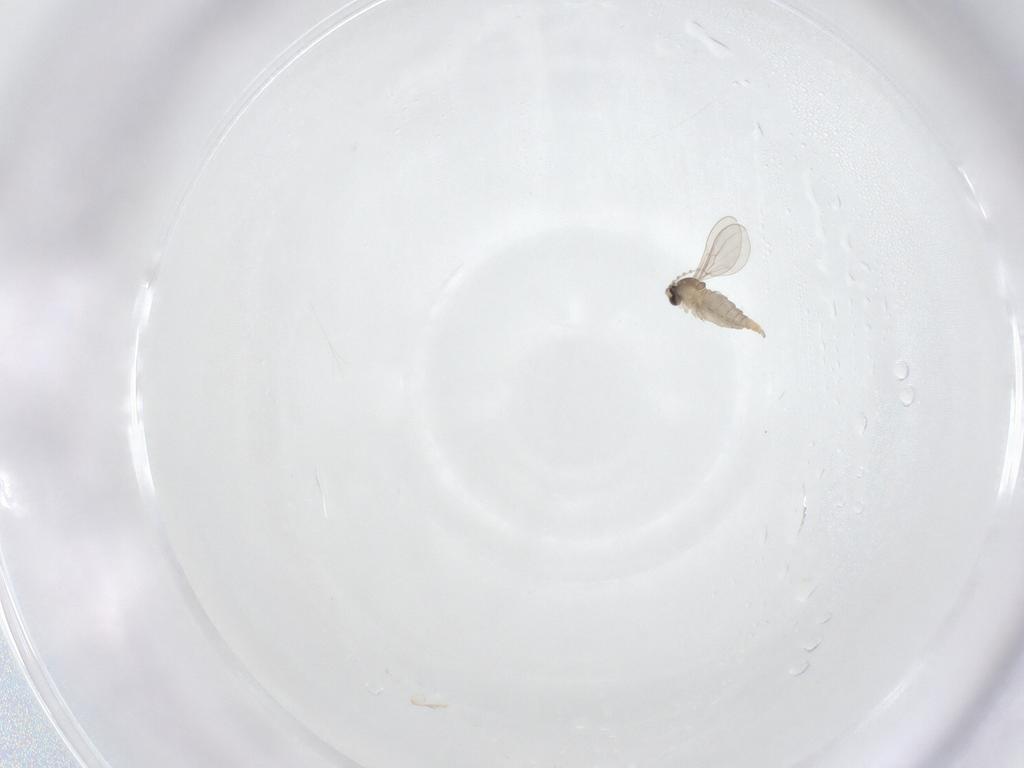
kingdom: Animalia
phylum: Arthropoda
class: Insecta
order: Diptera
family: Cecidomyiidae
